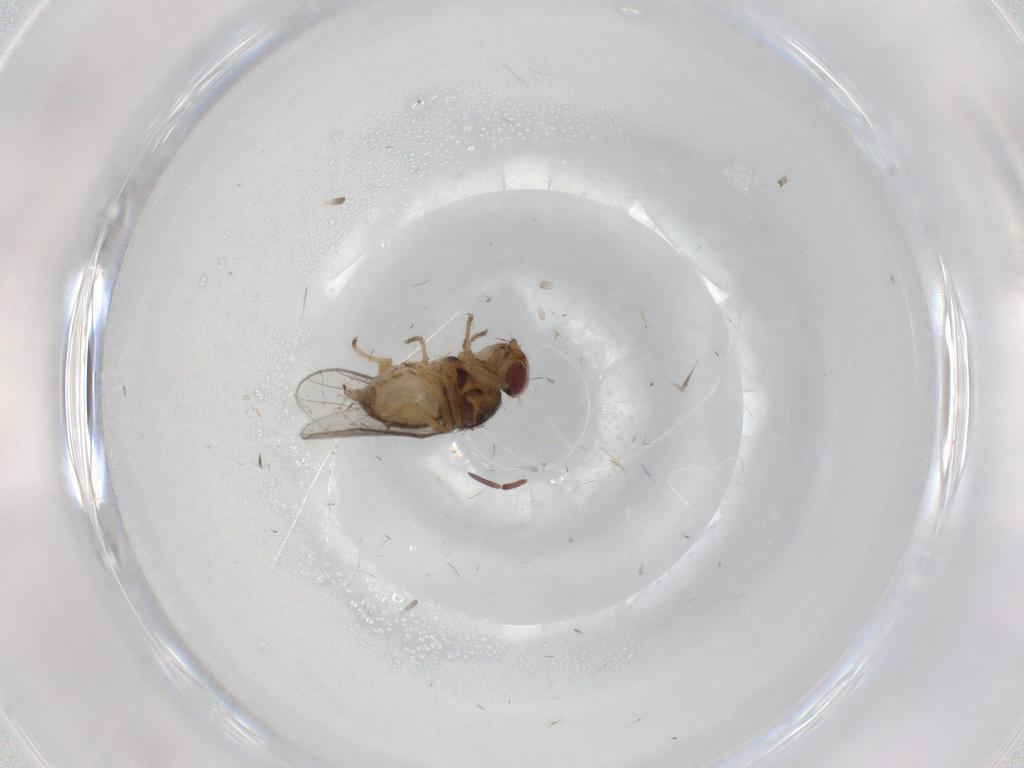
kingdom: Animalia
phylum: Arthropoda
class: Insecta
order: Diptera
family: Chloropidae
